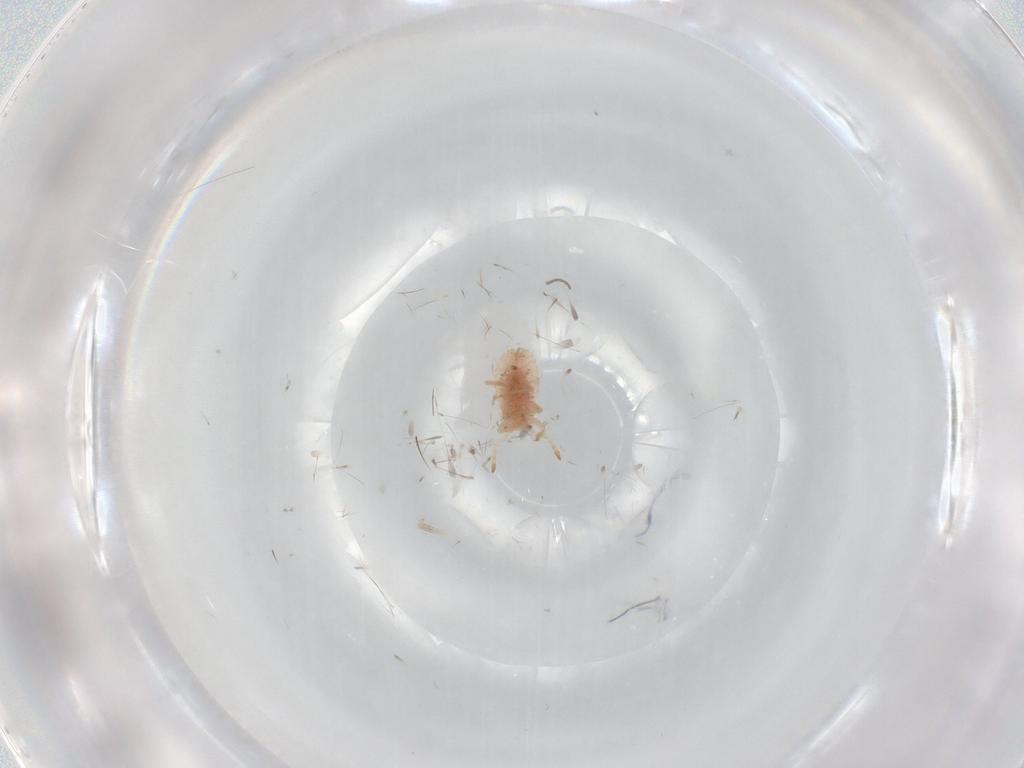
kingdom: Animalia
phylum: Arthropoda
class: Insecta
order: Hemiptera
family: Coccoidea_incertae_sedis
